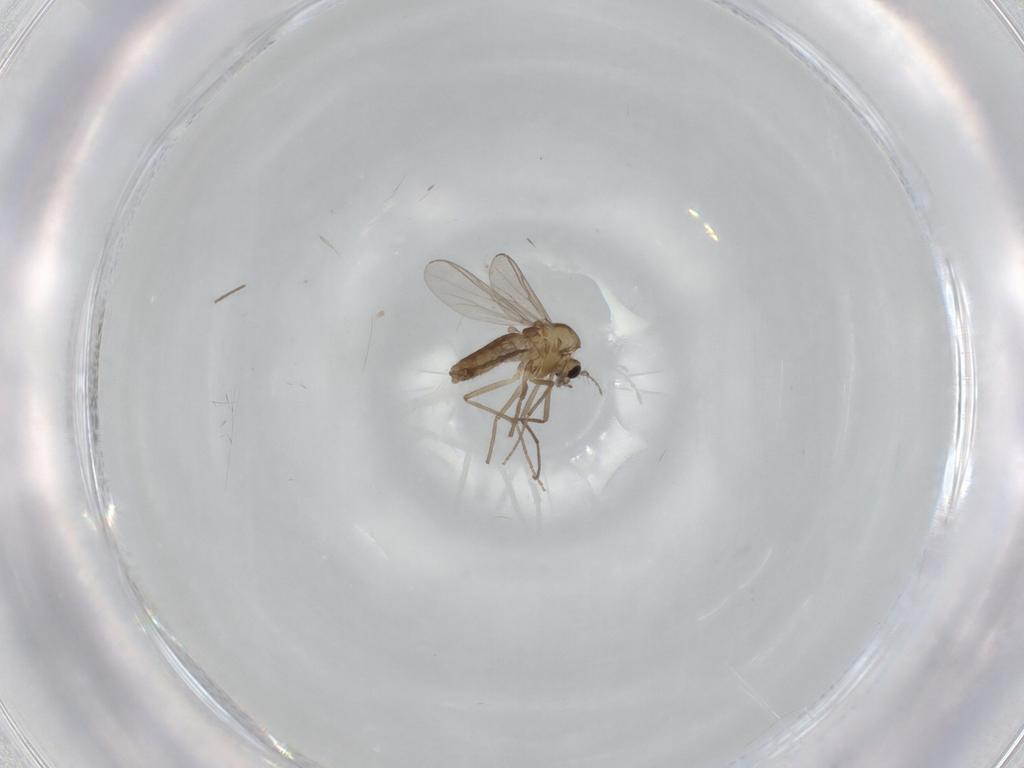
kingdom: Animalia
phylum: Arthropoda
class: Insecta
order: Diptera
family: Chironomidae
